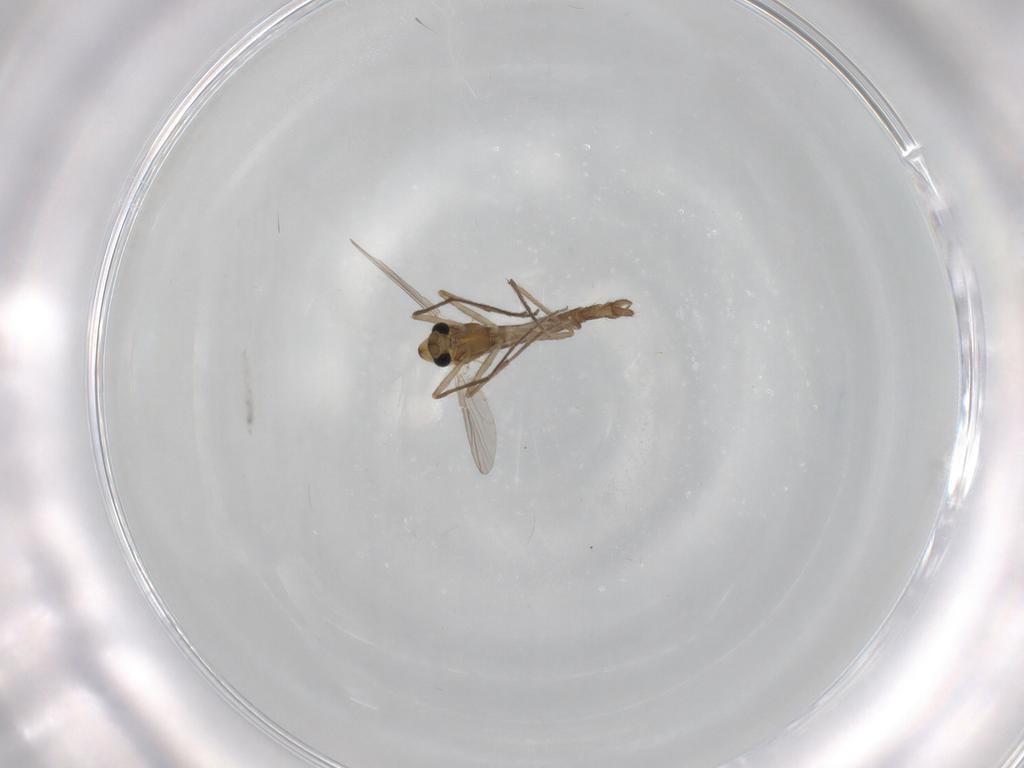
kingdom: Animalia
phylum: Arthropoda
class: Insecta
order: Diptera
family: Chironomidae
